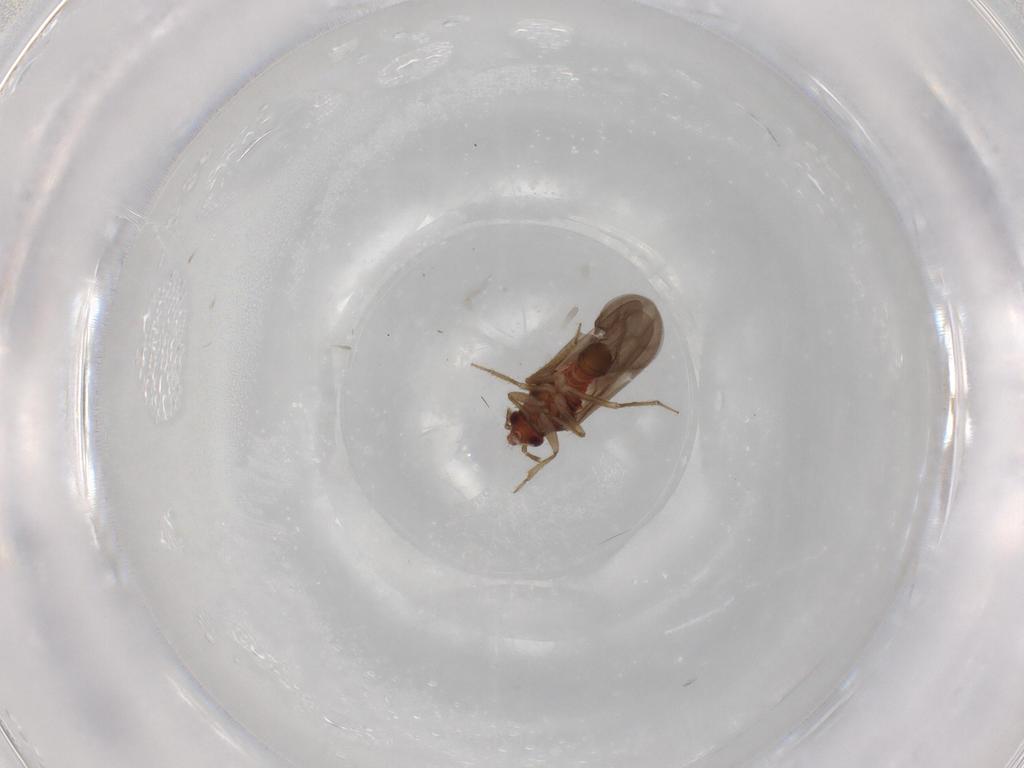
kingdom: Animalia
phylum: Arthropoda
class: Insecta
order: Hemiptera
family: Ceratocombidae
